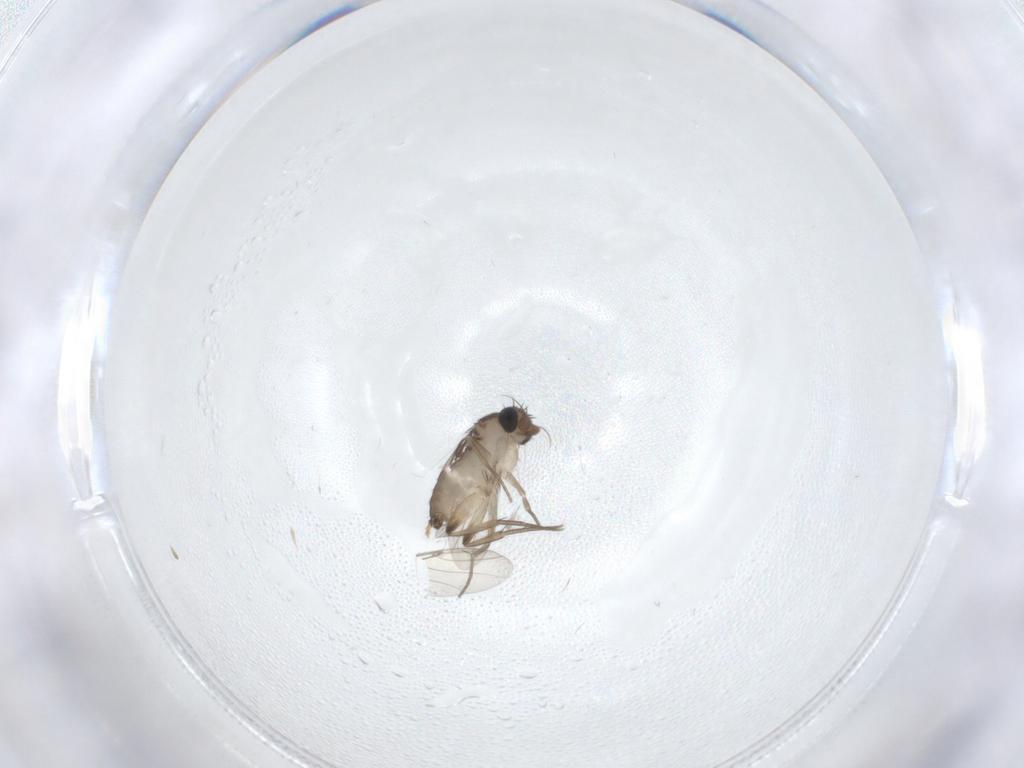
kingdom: Animalia
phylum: Arthropoda
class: Insecta
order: Diptera
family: Phoridae
